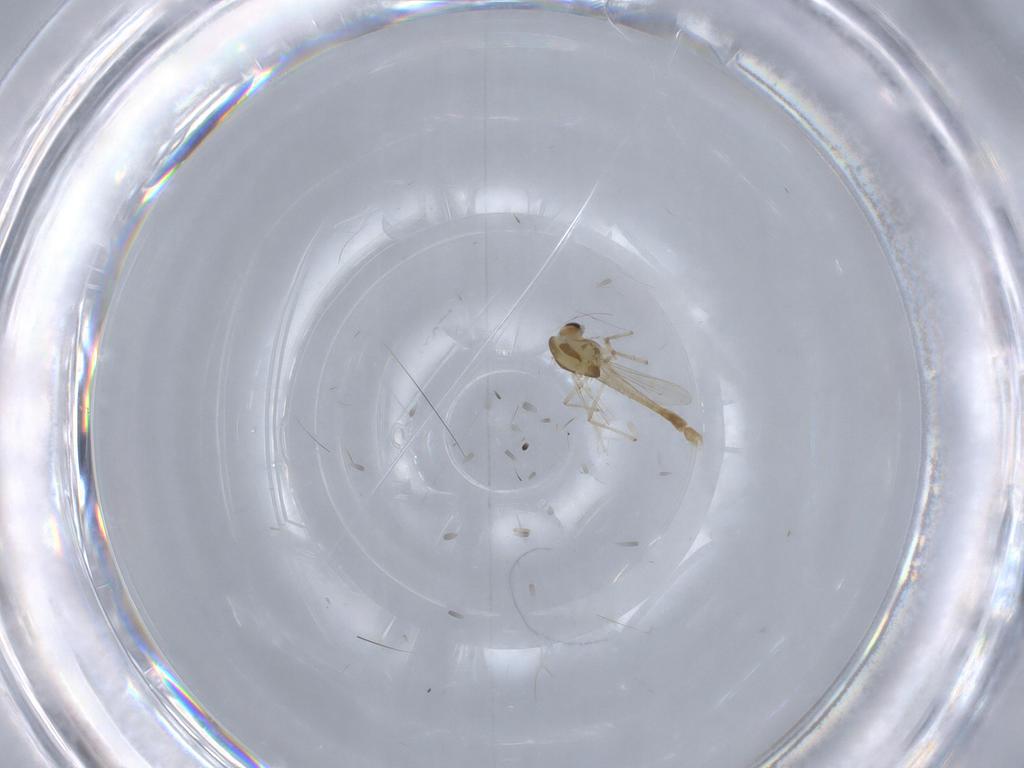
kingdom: Animalia
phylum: Arthropoda
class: Insecta
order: Diptera
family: Chironomidae
